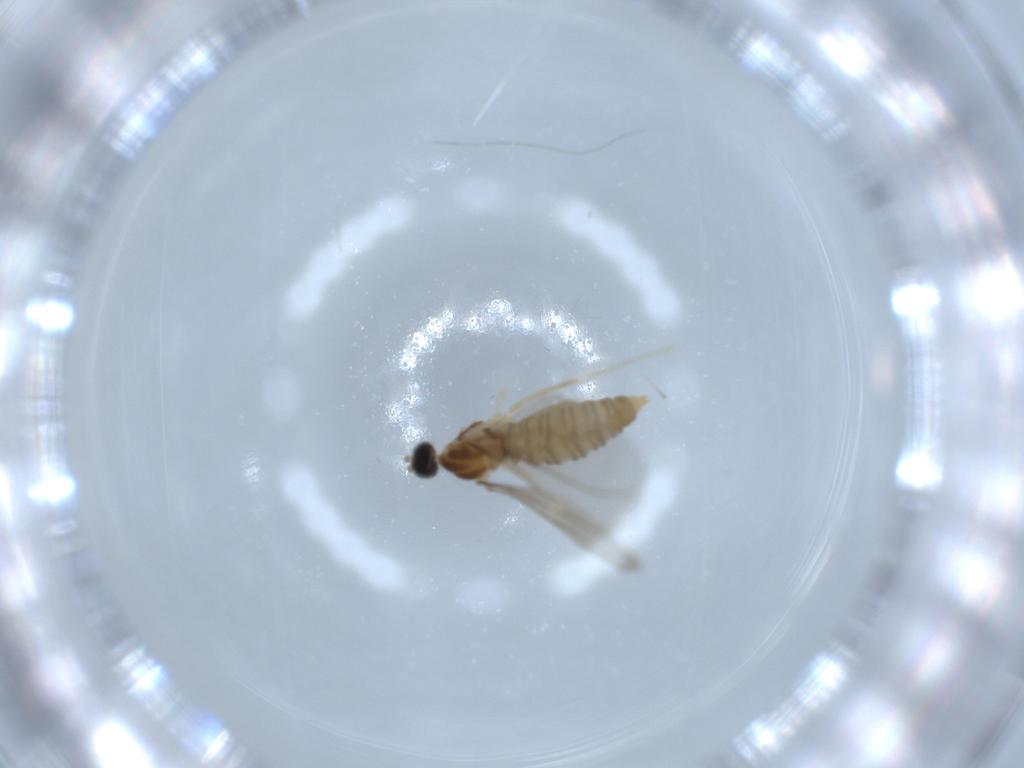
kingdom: Animalia
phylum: Arthropoda
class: Insecta
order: Diptera
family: Cecidomyiidae
